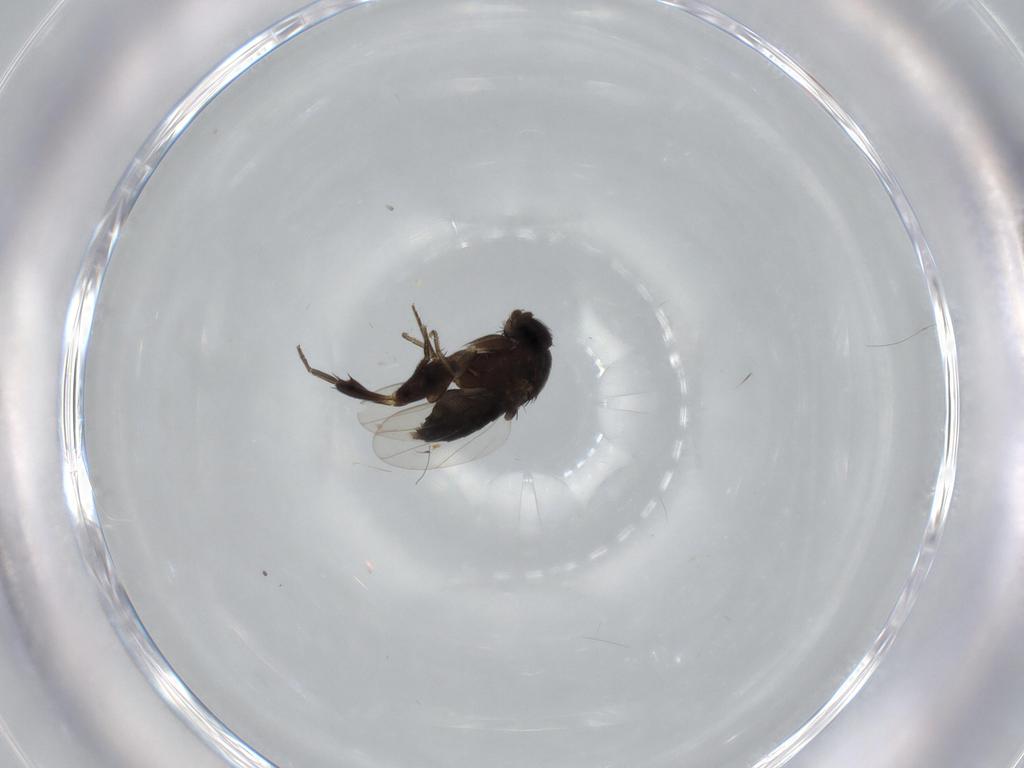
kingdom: Animalia
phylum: Arthropoda
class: Insecta
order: Diptera
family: Phoridae
